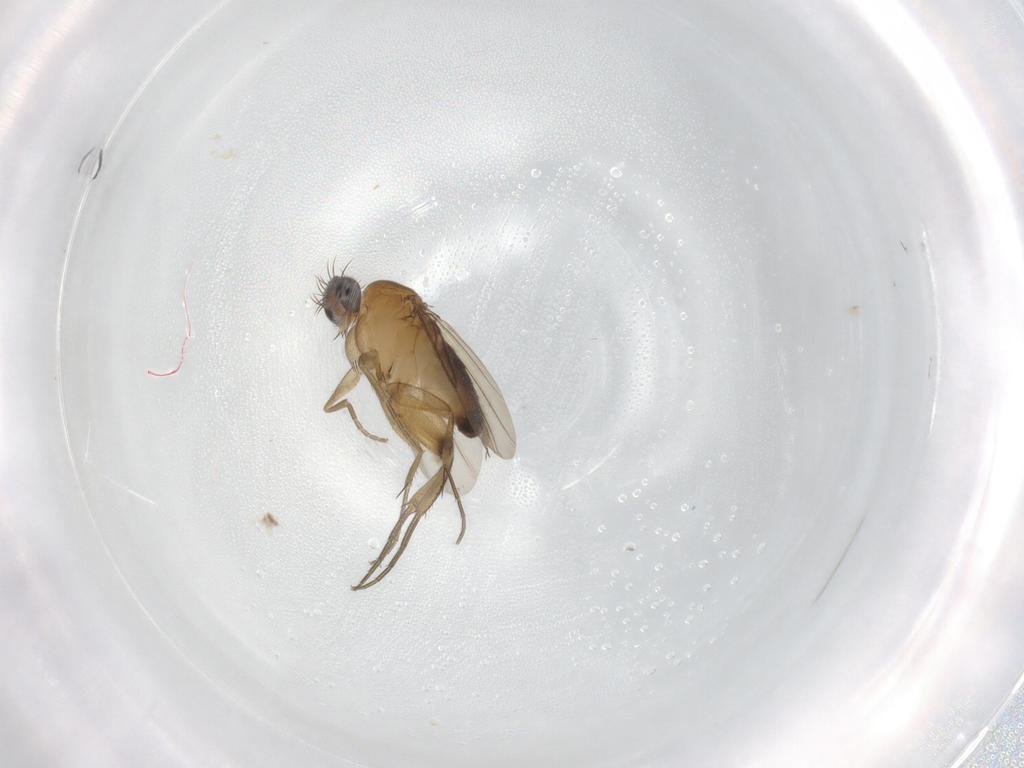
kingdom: Animalia
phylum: Arthropoda
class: Insecta
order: Diptera
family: Phoridae
